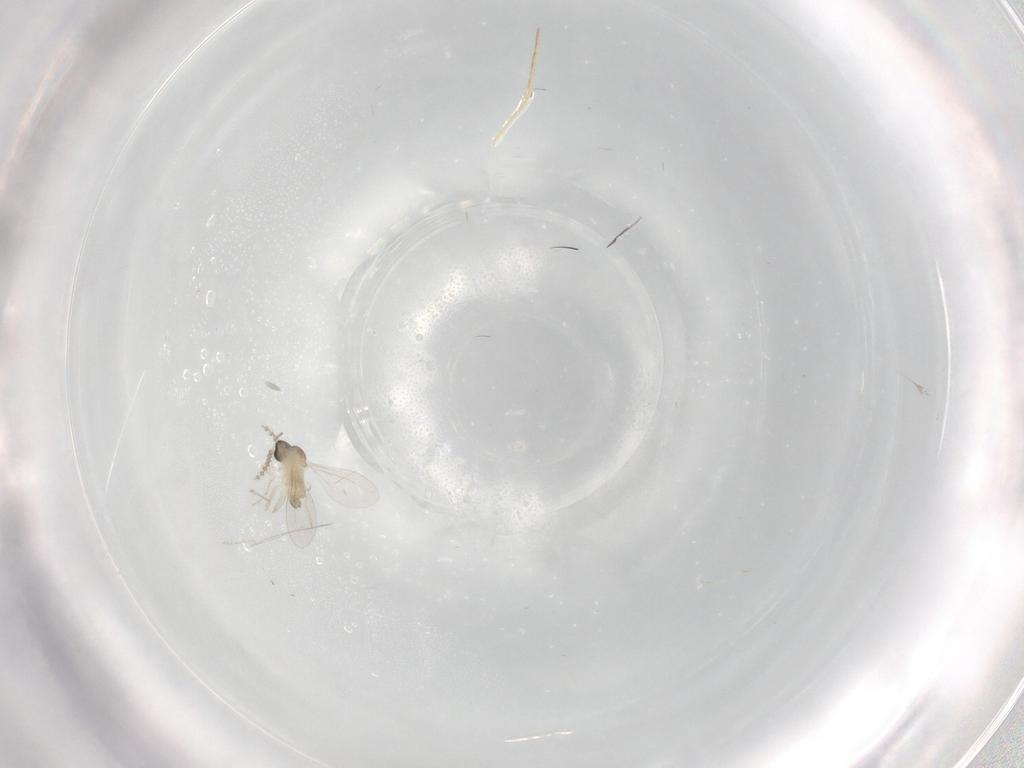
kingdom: Animalia
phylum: Arthropoda
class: Insecta
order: Diptera
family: Cecidomyiidae
